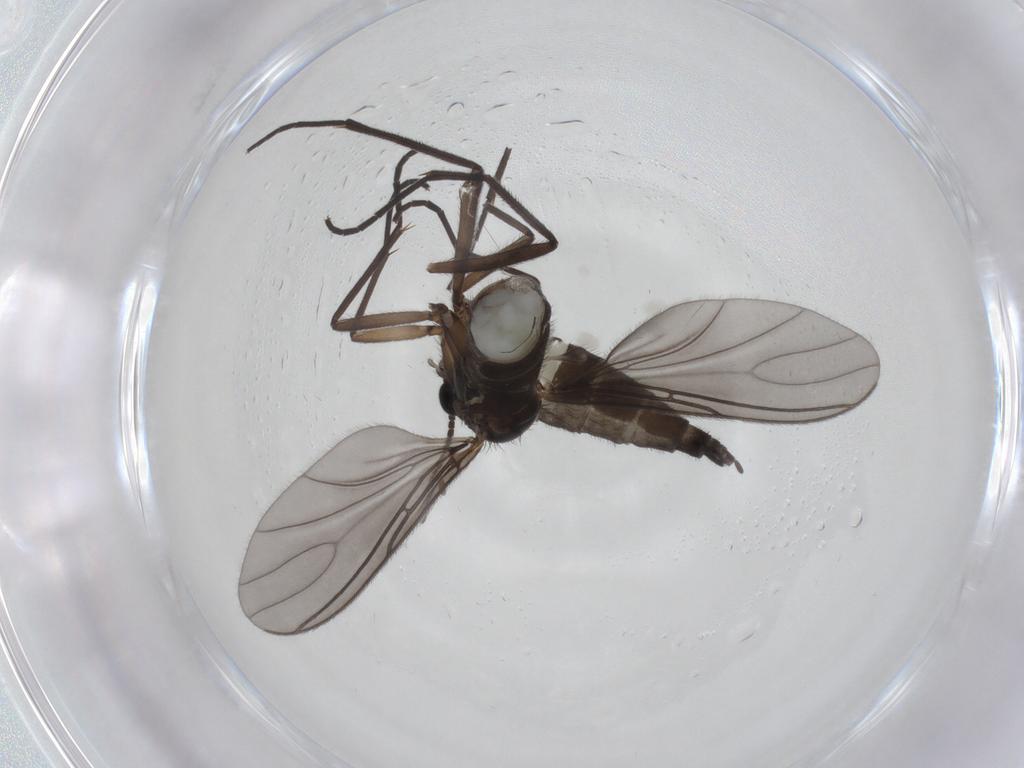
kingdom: Animalia
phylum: Arthropoda
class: Insecta
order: Diptera
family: Sciaridae
